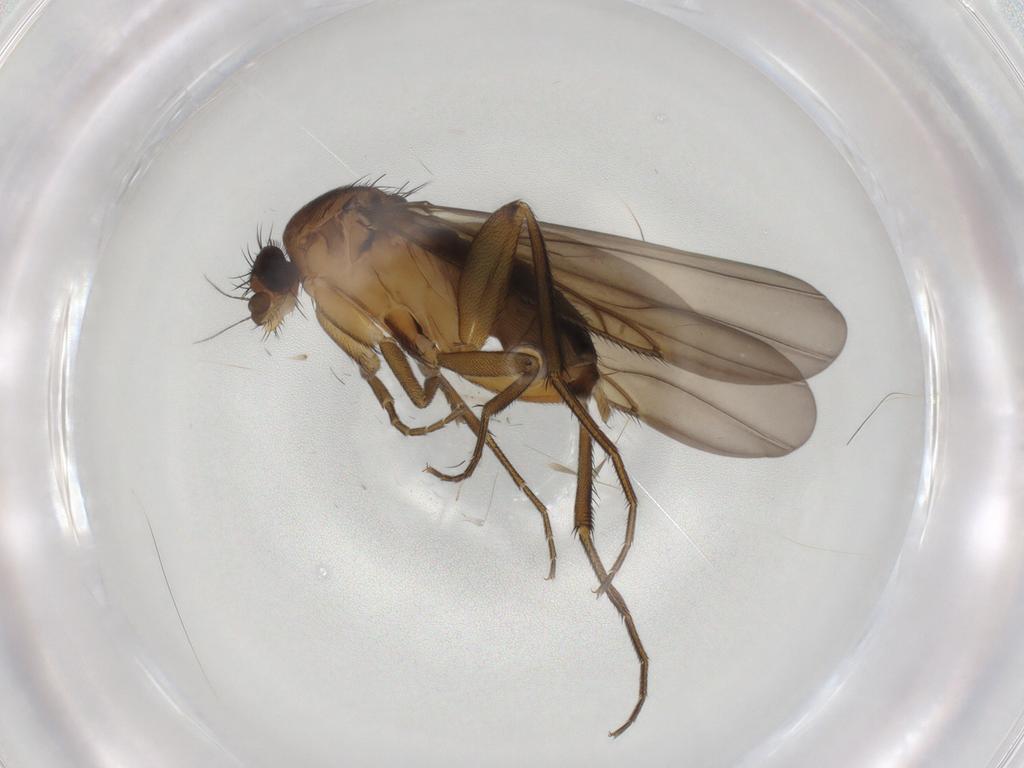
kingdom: Animalia
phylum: Arthropoda
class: Insecta
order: Diptera
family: Phoridae
